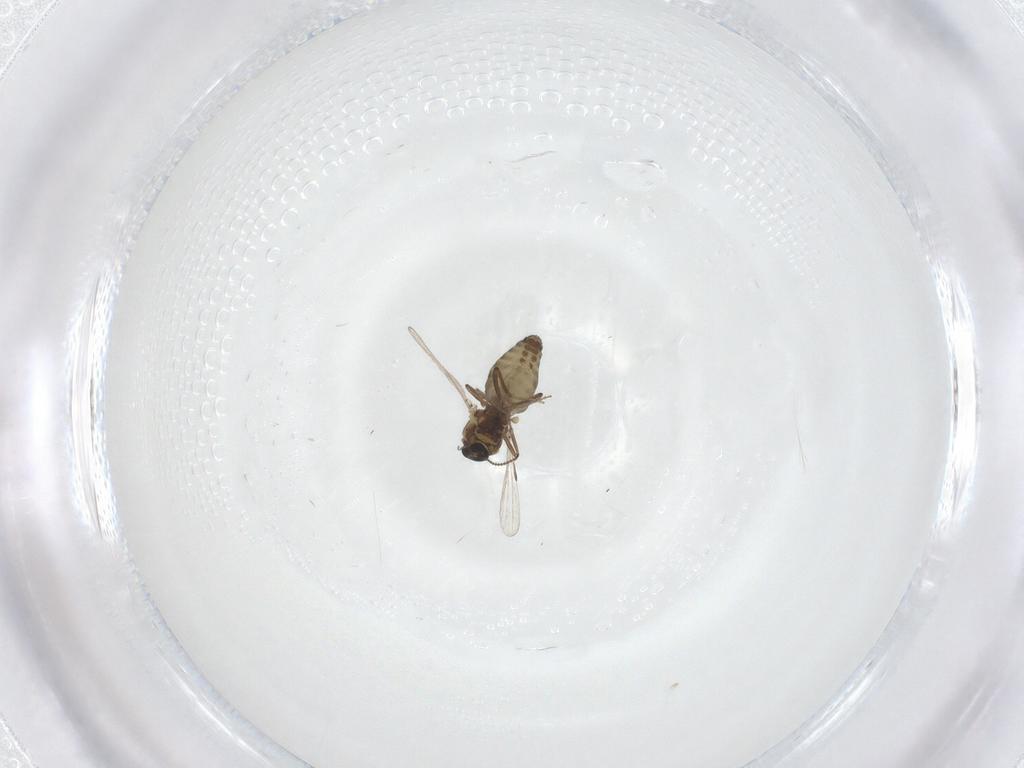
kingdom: Animalia
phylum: Arthropoda
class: Insecta
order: Diptera
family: Ceratopogonidae
